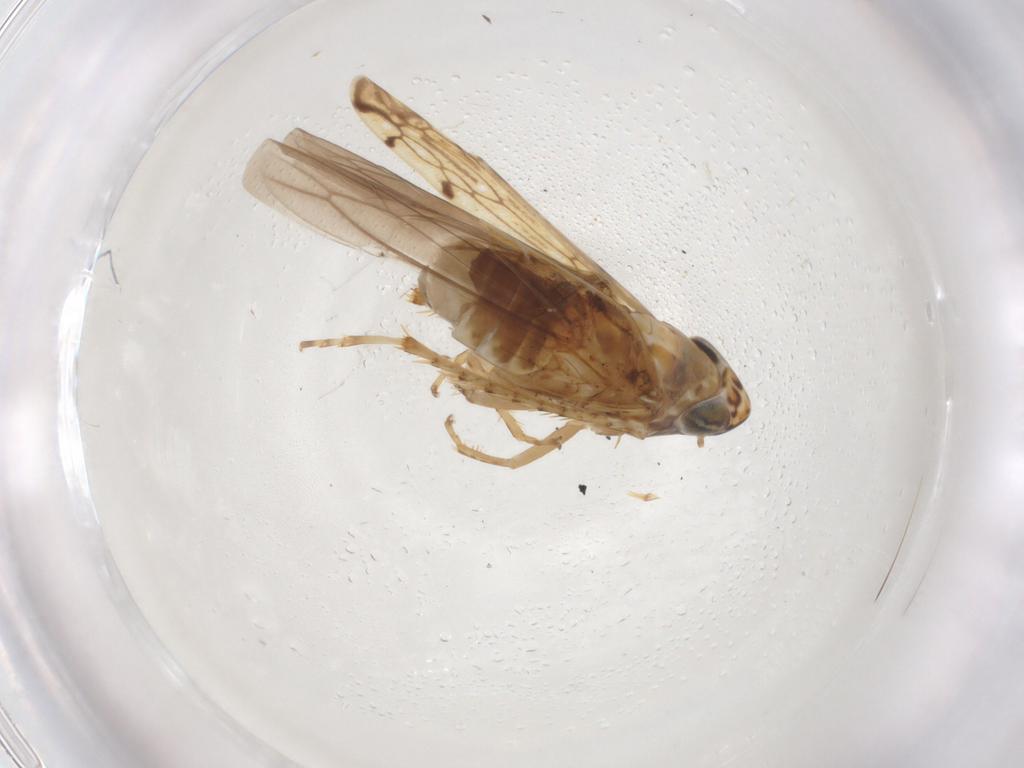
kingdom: Animalia
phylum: Arthropoda
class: Insecta
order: Hemiptera
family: Cicadellidae
